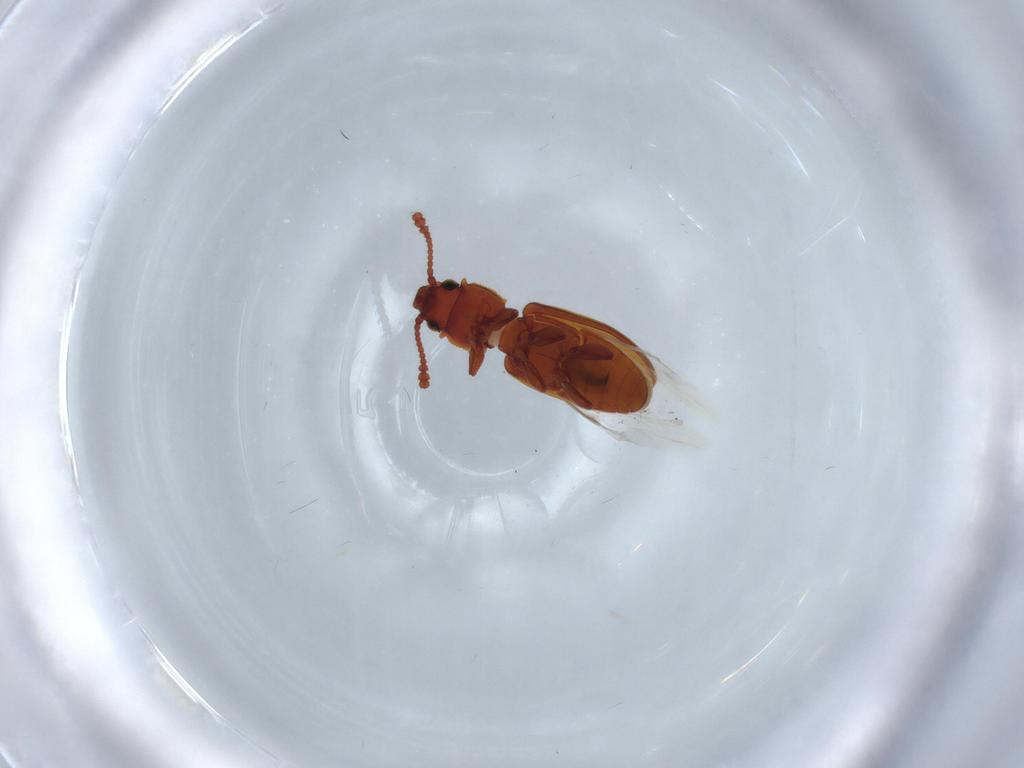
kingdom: Animalia
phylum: Arthropoda
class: Insecta
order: Coleoptera
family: Silvanidae
